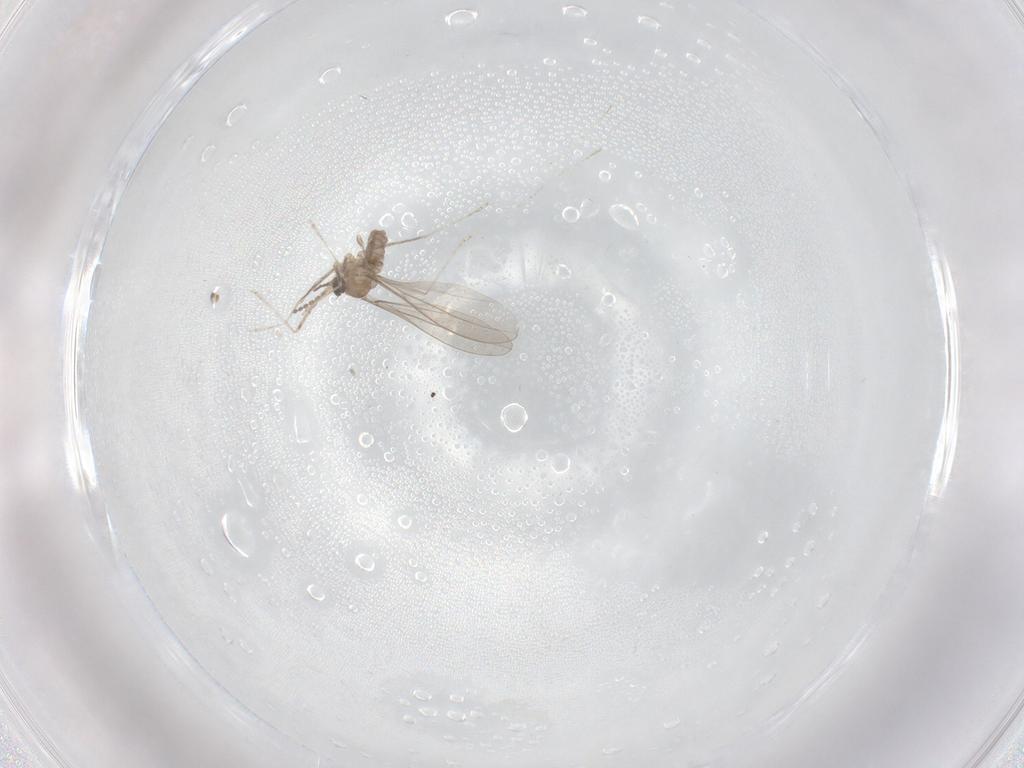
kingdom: Animalia
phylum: Arthropoda
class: Insecta
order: Diptera
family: Cecidomyiidae
